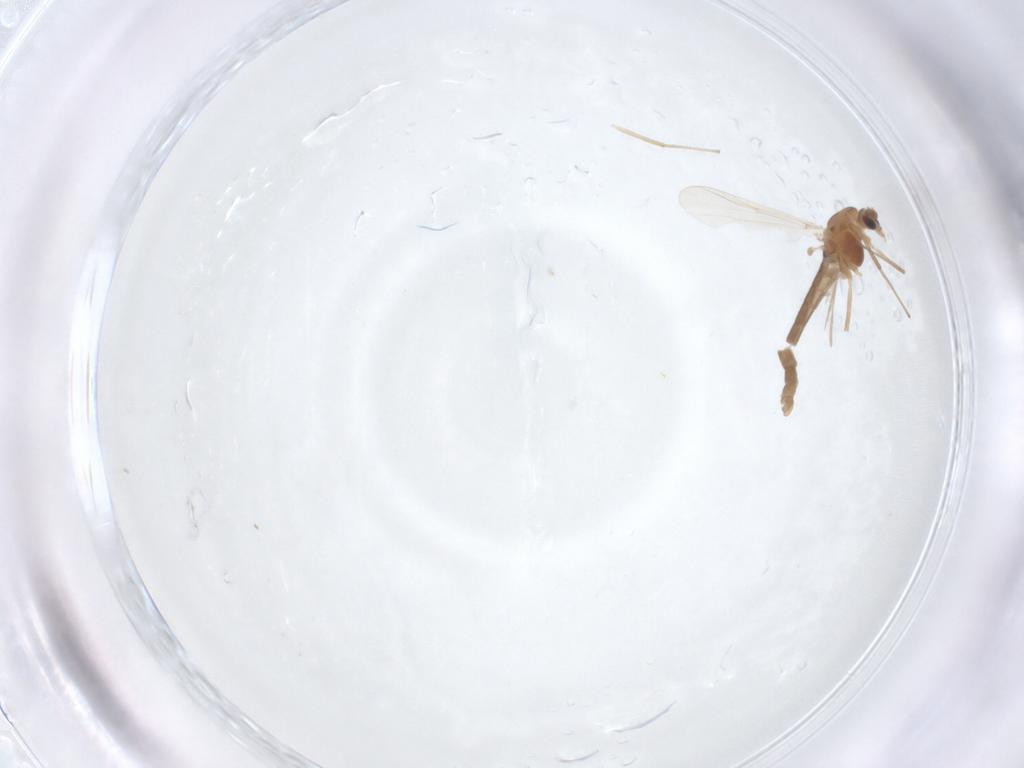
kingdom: Animalia
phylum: Arthropoda
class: Insecta
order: Diptera
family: Chironomidae
